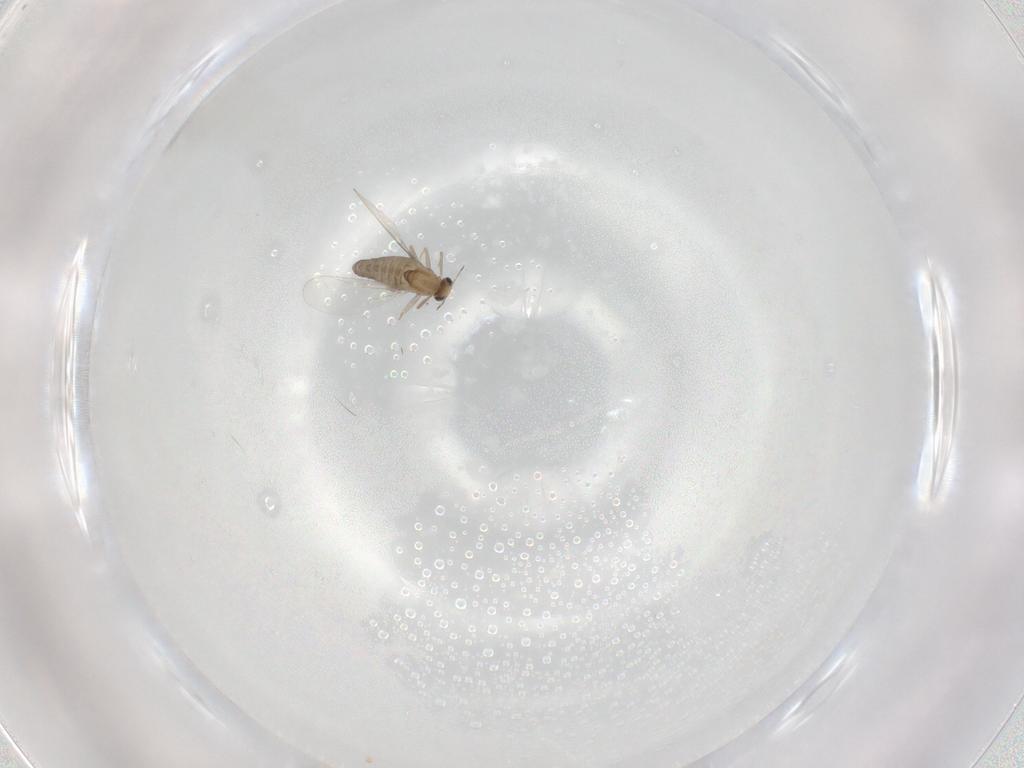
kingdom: Animalia
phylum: Arthropoda
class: Insecta
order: Diptera
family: Chironomidae
